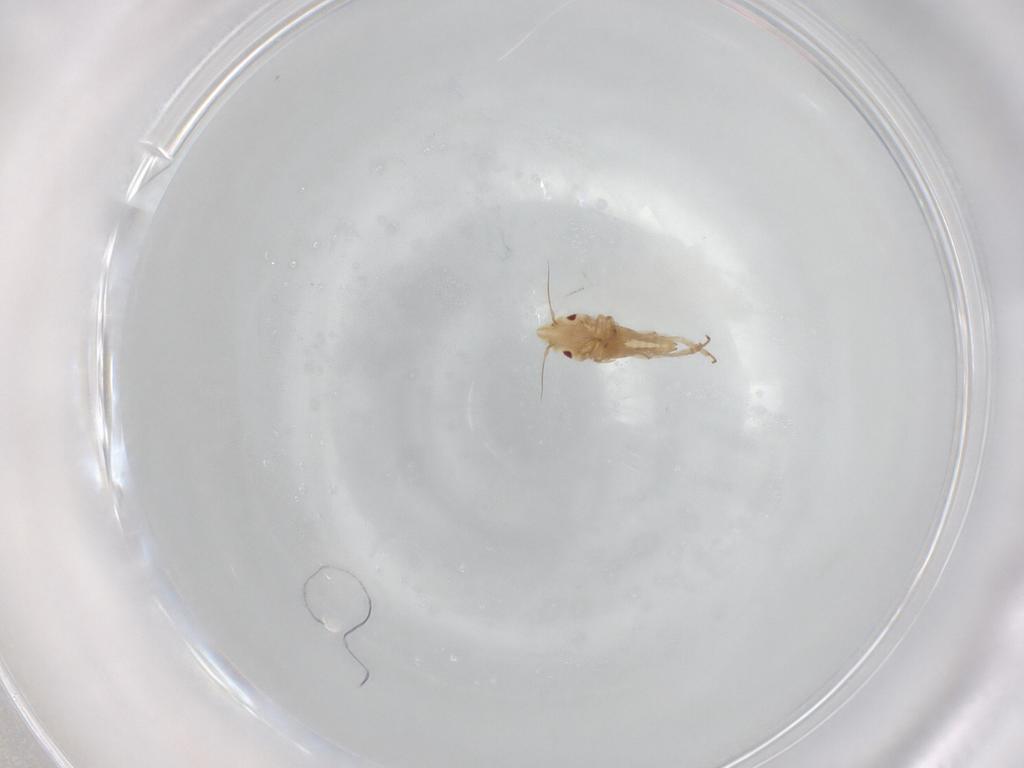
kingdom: Animalia
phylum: Arthropoda
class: Insecta
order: Hemiptera
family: Cicadellidae
